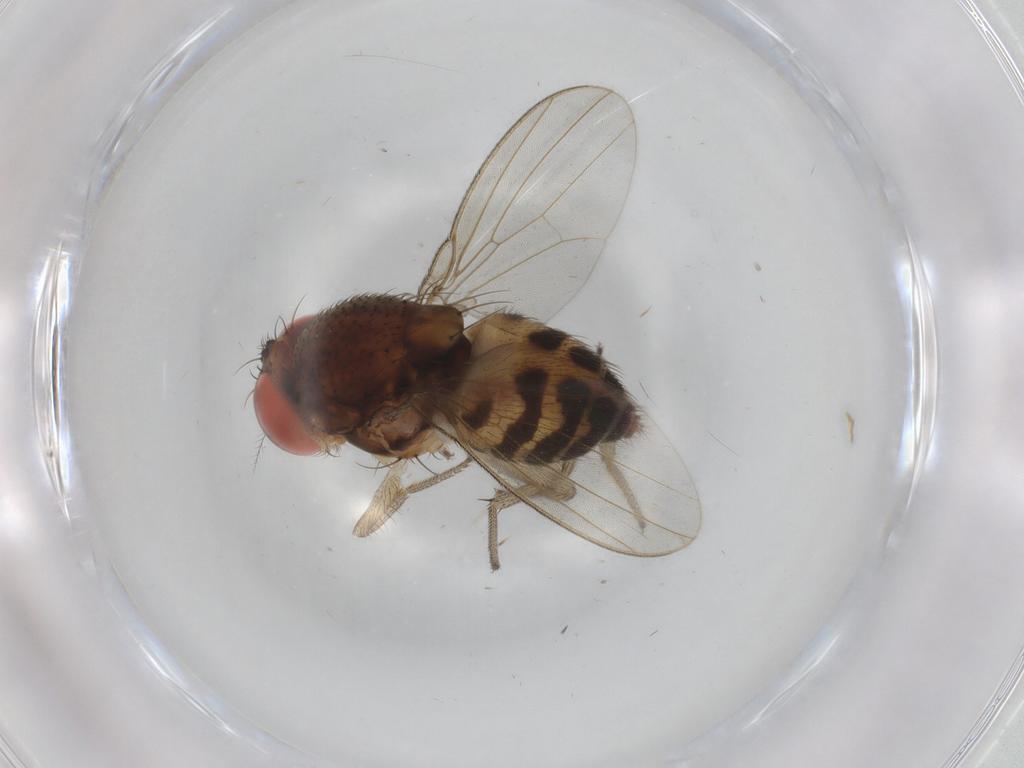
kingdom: Animalia
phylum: Arthropoda
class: Insecta
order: Diptera
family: Drosophilidae
